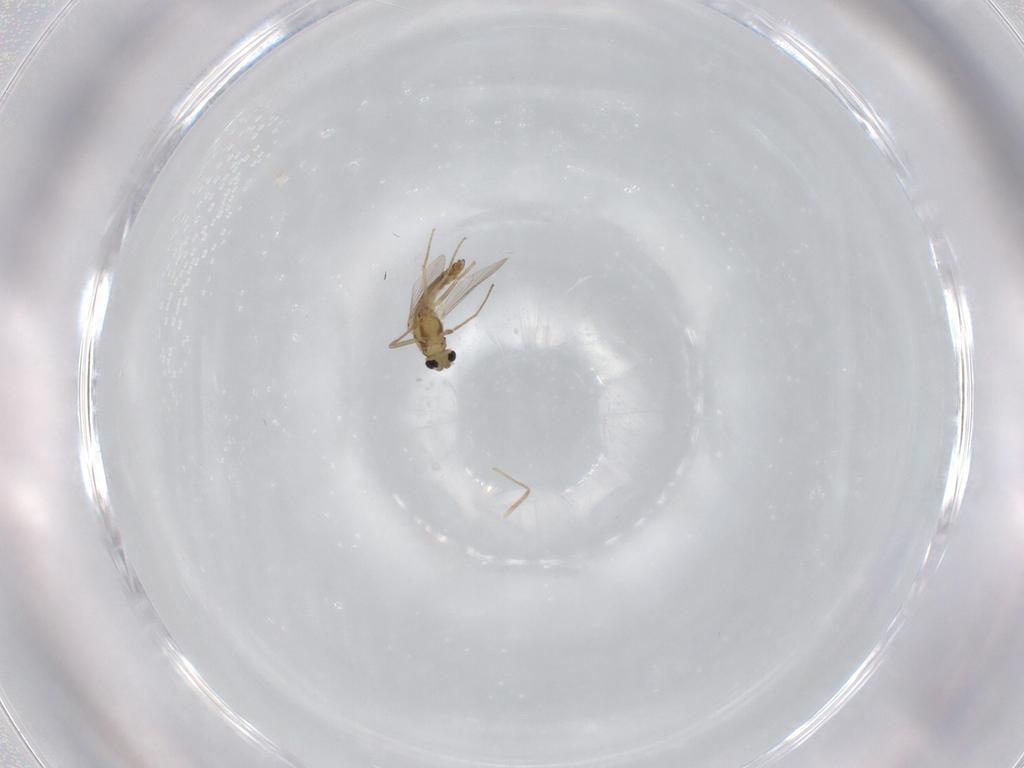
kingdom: Animalia
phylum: Arthropoda
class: Insecta
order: Diptera
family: Chironomidae
